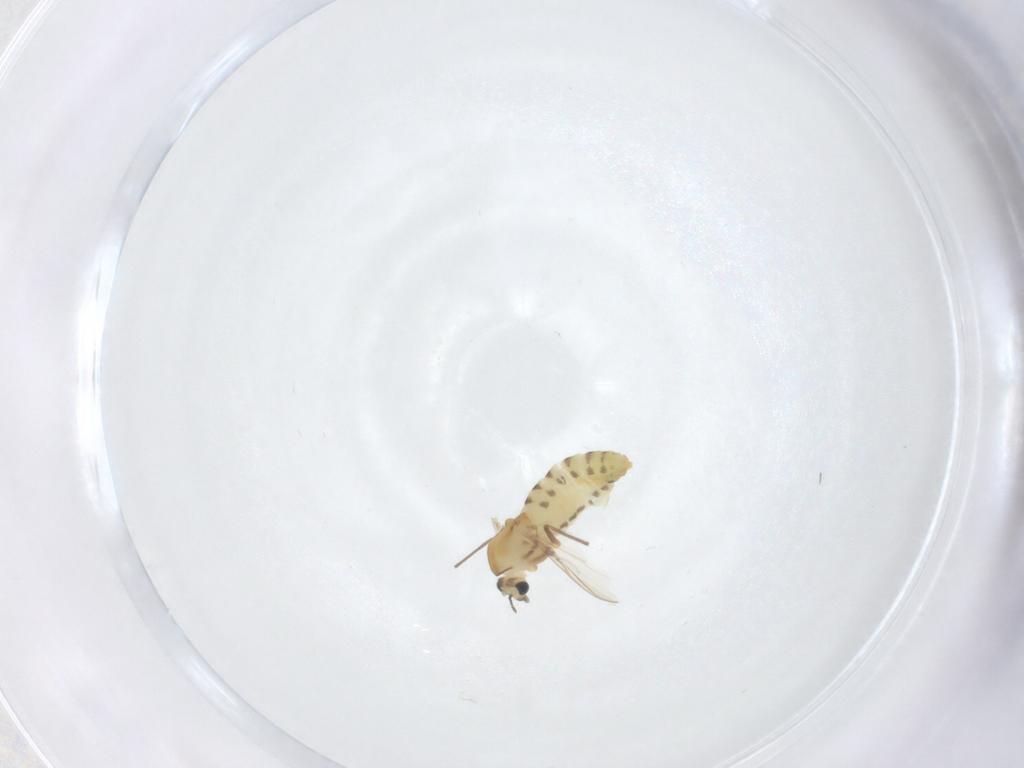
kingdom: Animalia
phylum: Arthropoda
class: Insecta
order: Diptera
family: Chironomidae
